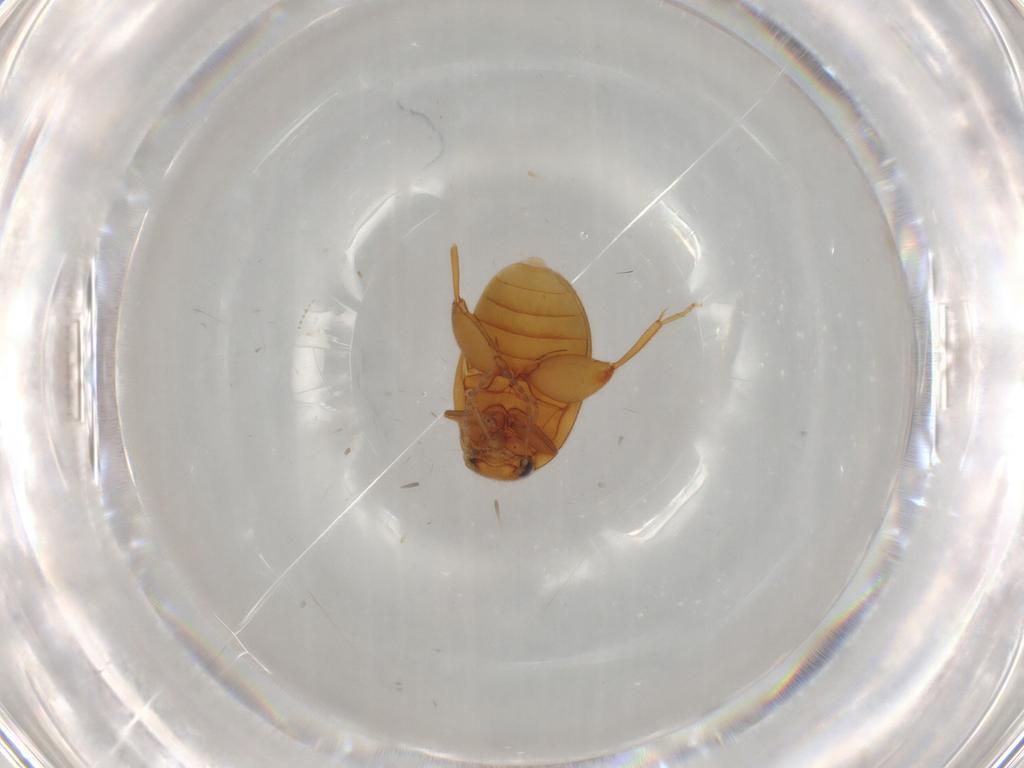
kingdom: Animalia
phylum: Arthropoda
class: Insecta
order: Coleoptera
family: Scirtidae
